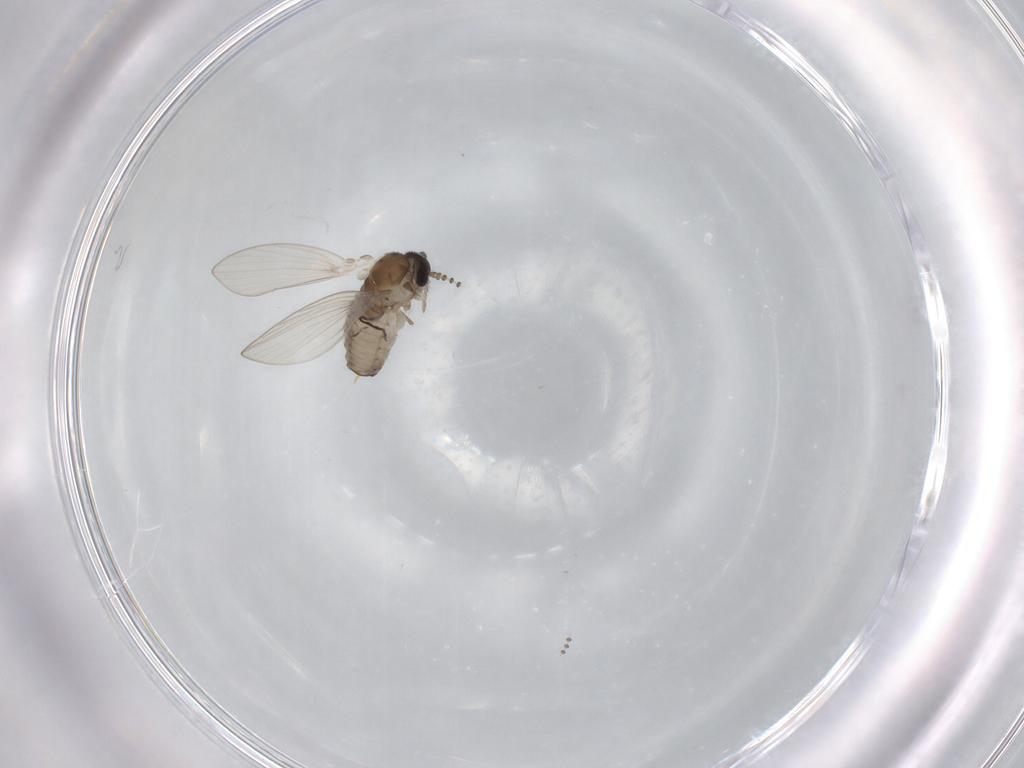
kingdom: Animalia
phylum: Arthropoda
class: Insecta
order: Diptera
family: Psychodidae
